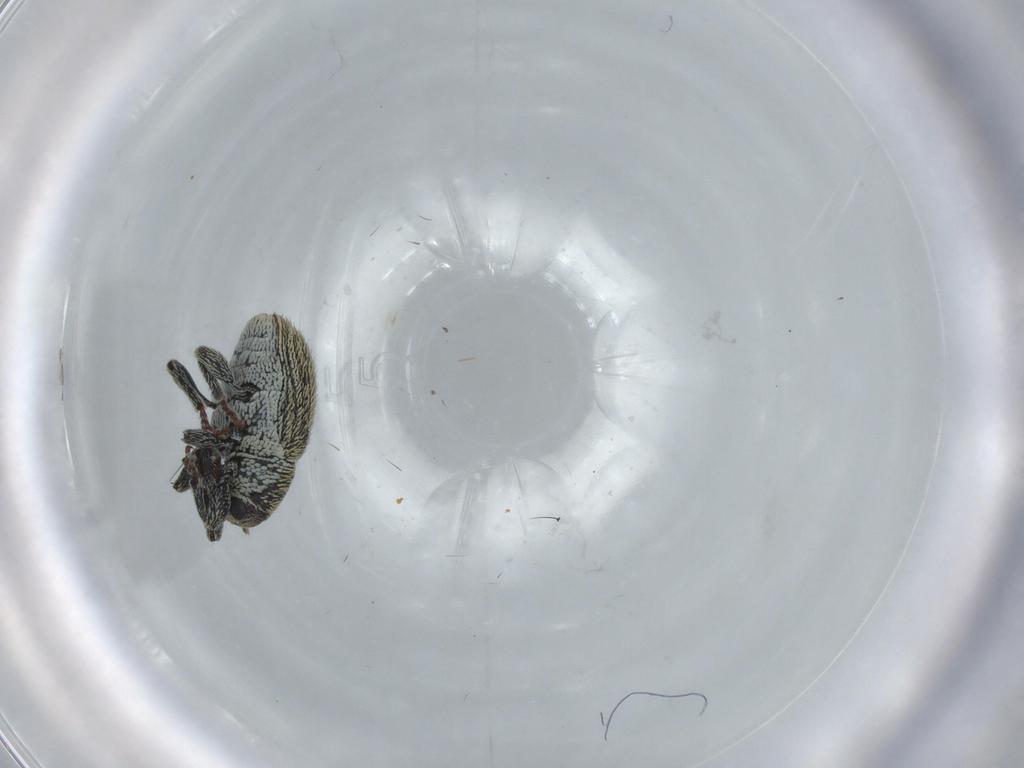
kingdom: Animalia
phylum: Arthropoda
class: Insecta
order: Coleoptera
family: Curculionidae
